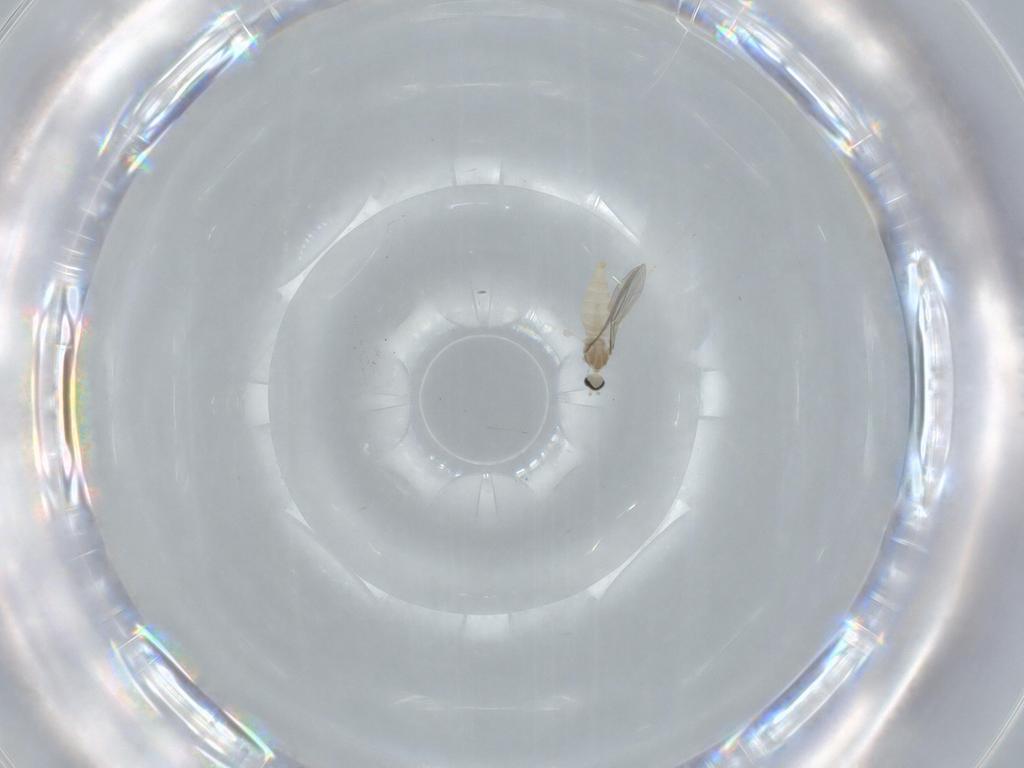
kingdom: Animalia
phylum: Arthropoda
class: Insecta
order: Diptera
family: Cecidomyiidae
